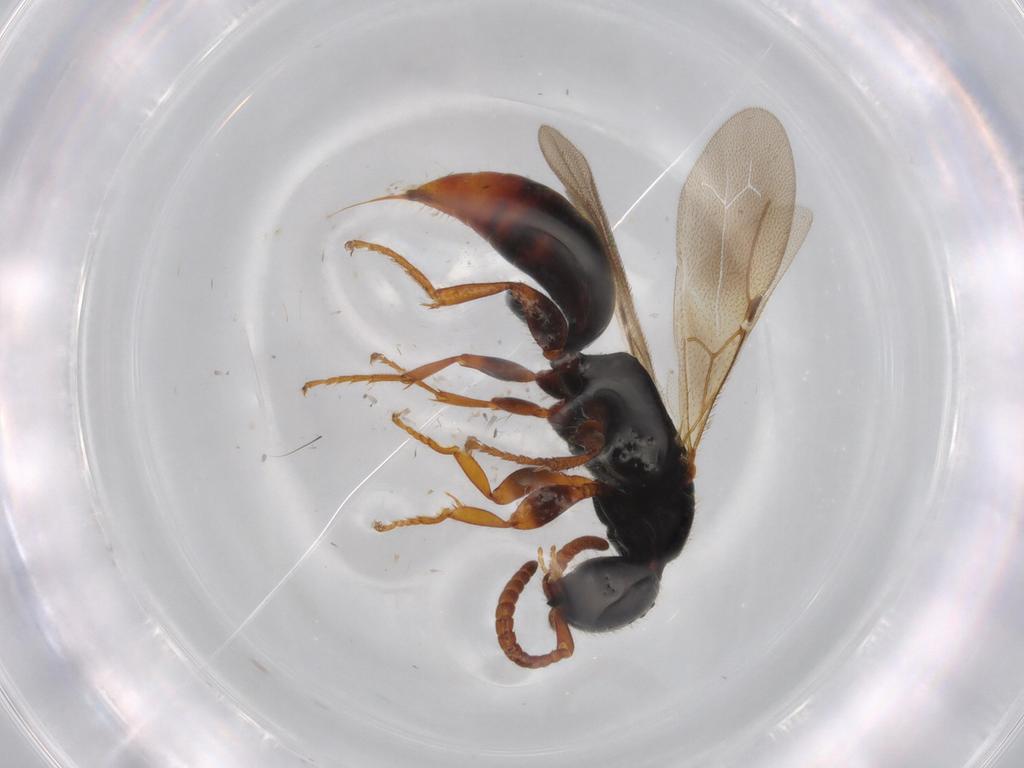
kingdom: Animalia
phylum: Arthropoda
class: Insecta
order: Hymenoptera
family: Bethylidae
